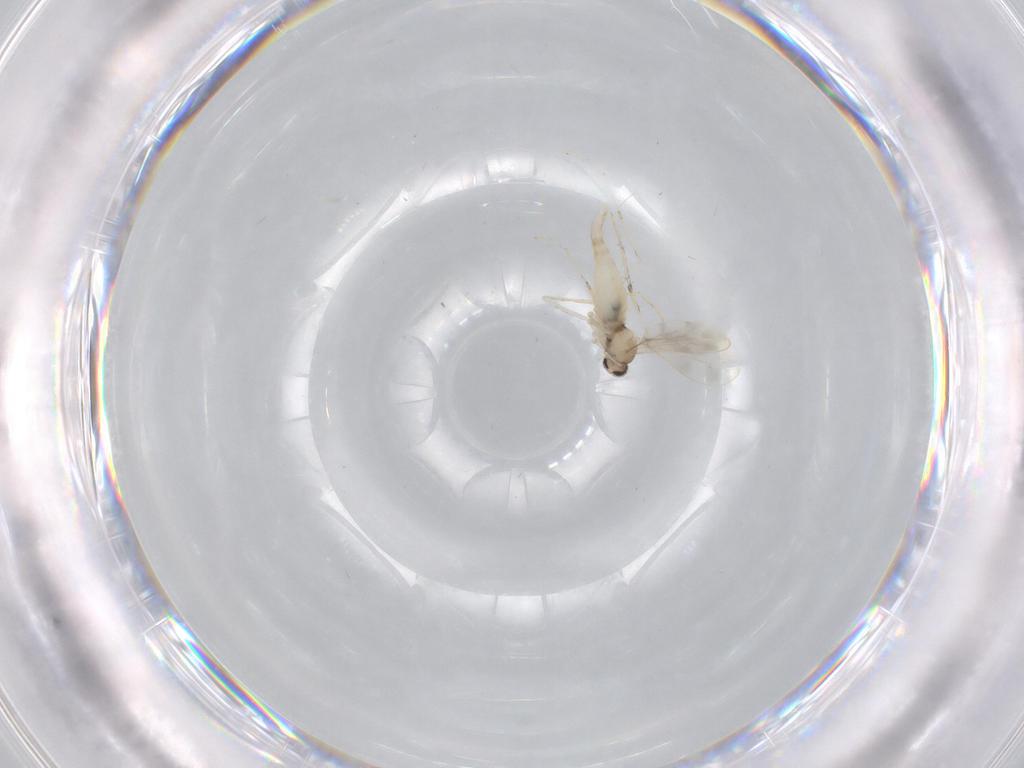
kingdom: Animalia
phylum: Arthropoda
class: Insecta
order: Diptera
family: Cecidomyiidae
